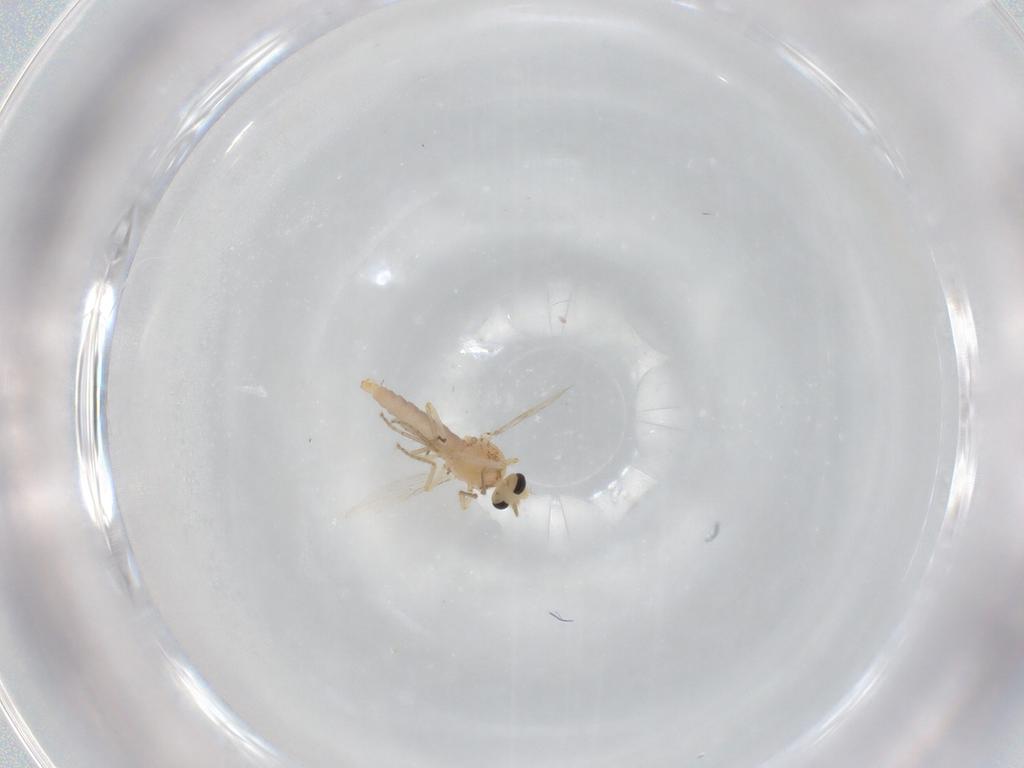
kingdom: Animalia
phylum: Arthropoda
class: Insecta
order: Diptera
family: Ceratopogonidae
